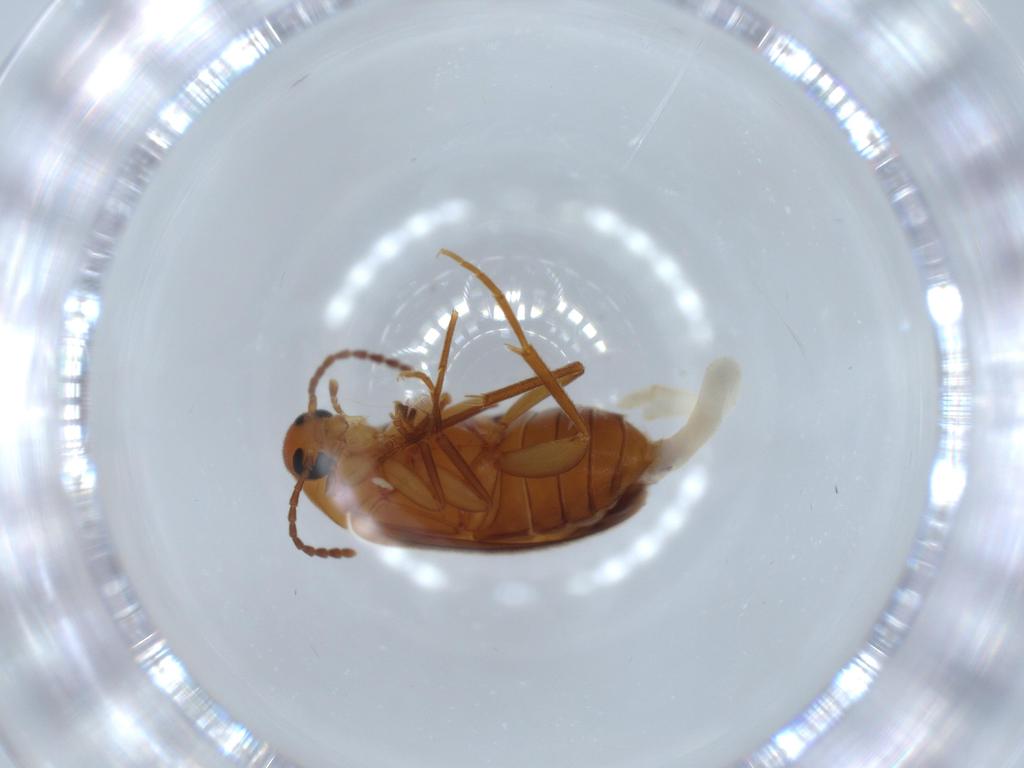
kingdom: Animalia
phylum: Arthropoda
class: Insecta
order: Coleoptera
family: Scraptiidae
